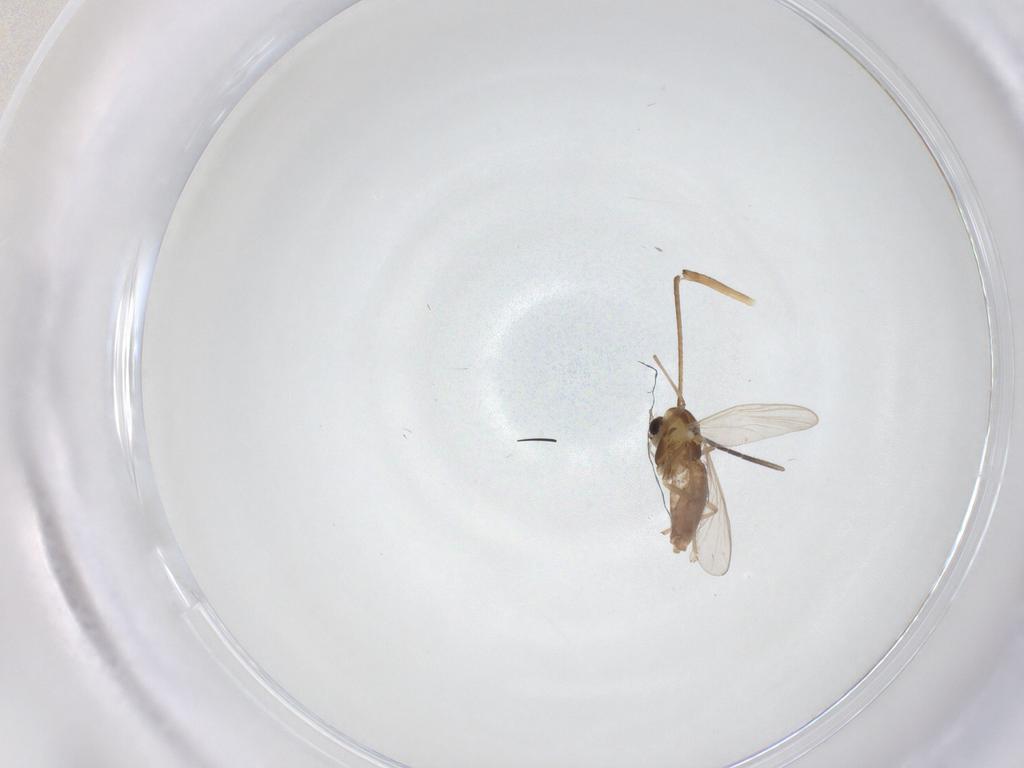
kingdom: Animalia
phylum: Arthropoda
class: Insecta
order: Diptera
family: Chironomidae
